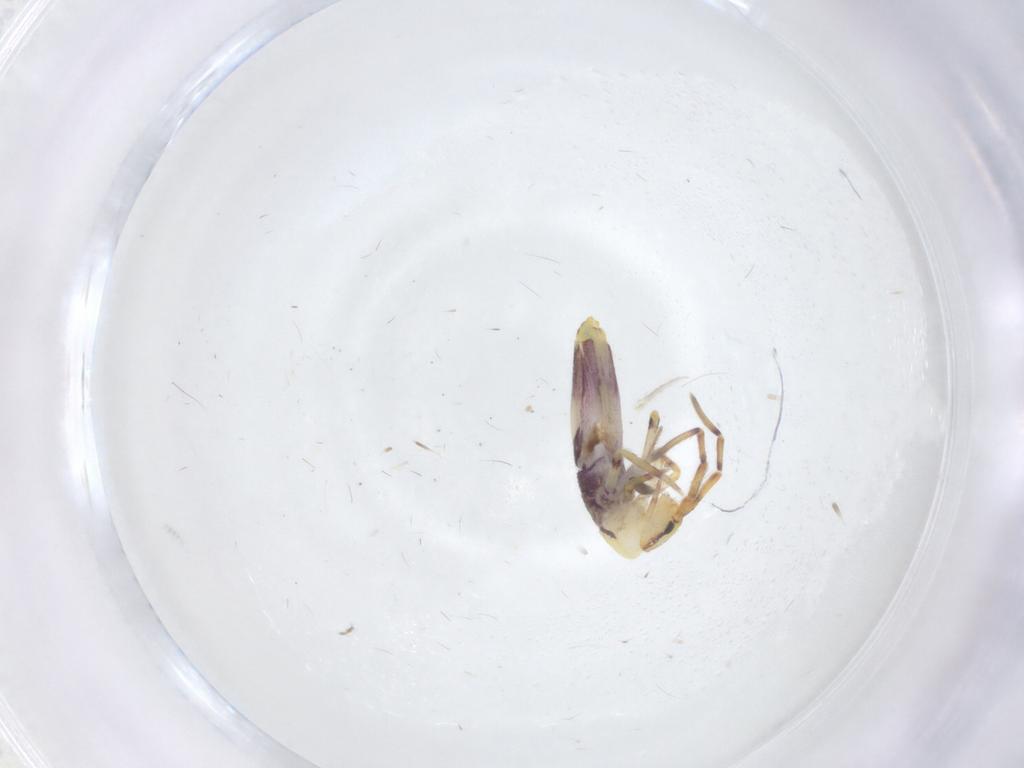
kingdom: Animalia
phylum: Arthropoda
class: Collembola
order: Entomobryomorpha
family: Entomobryidae
